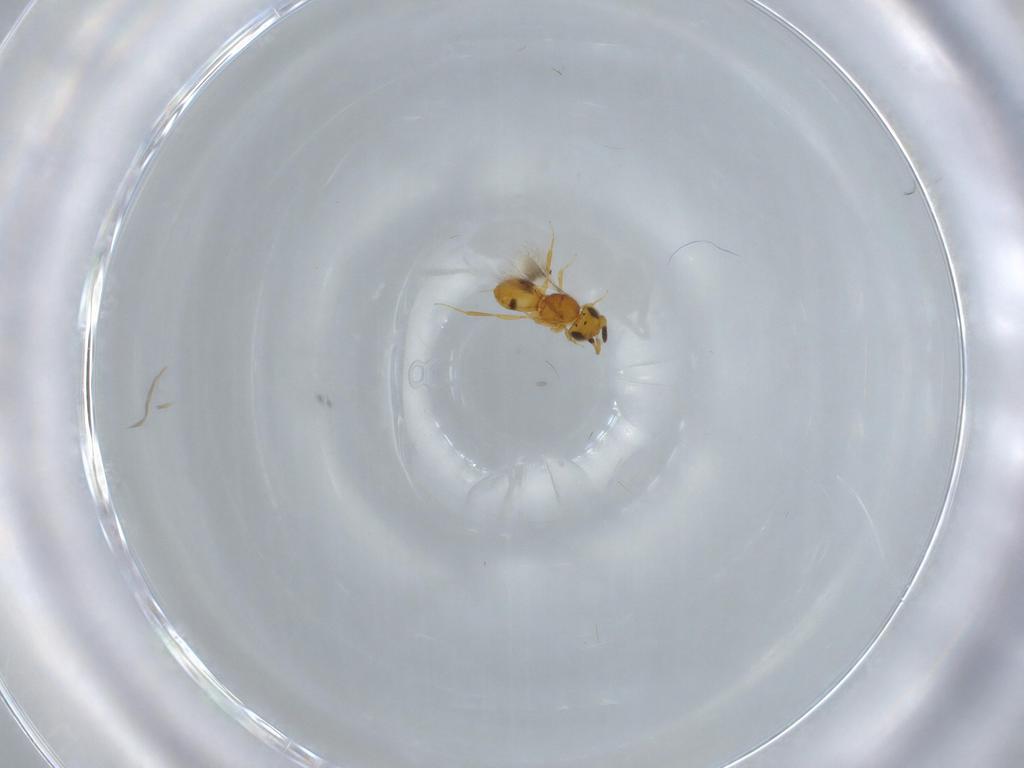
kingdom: Animalia
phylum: Arthropoda
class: Insecta
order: Hymenoptera
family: Scelionidae
